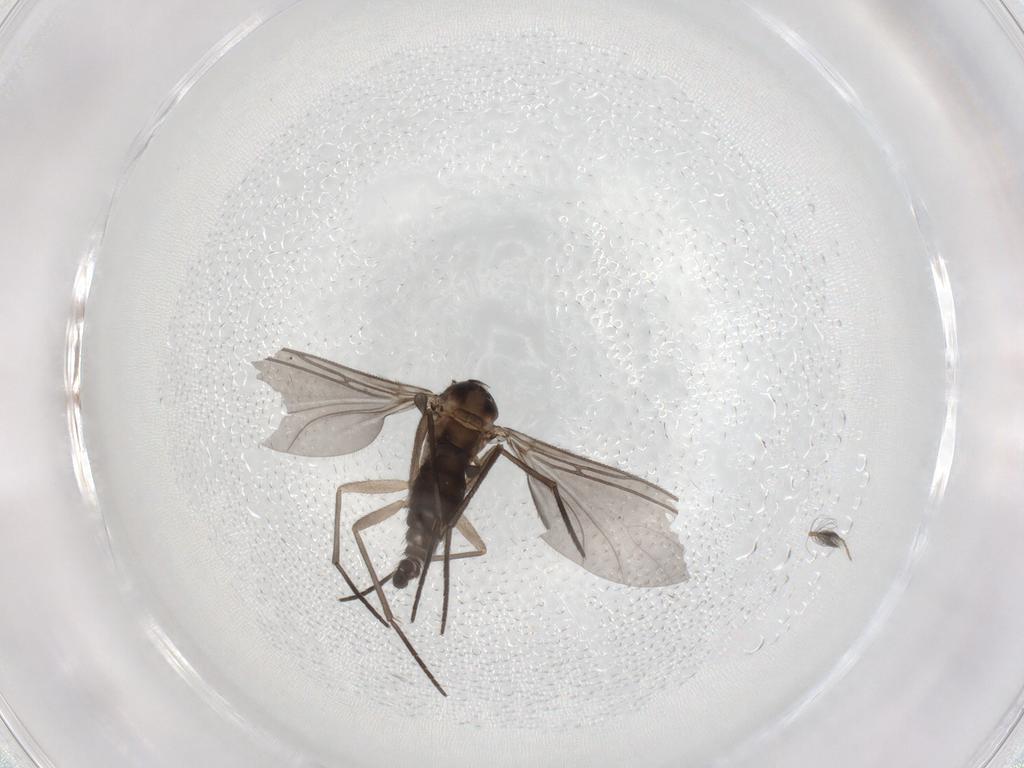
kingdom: Animalia
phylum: Arthropoda
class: Insecta
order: Diptera
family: Sciaridae
